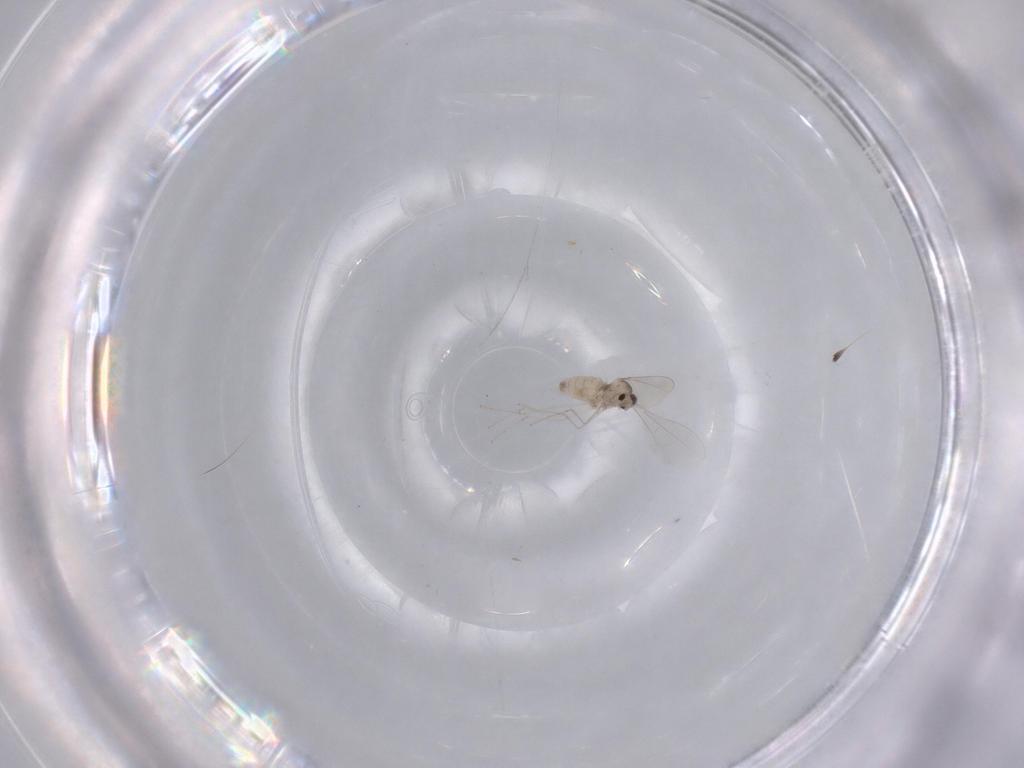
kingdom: Animalia
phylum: Arthropoda
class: Insecta
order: Diptera
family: Cecidomyiidae
